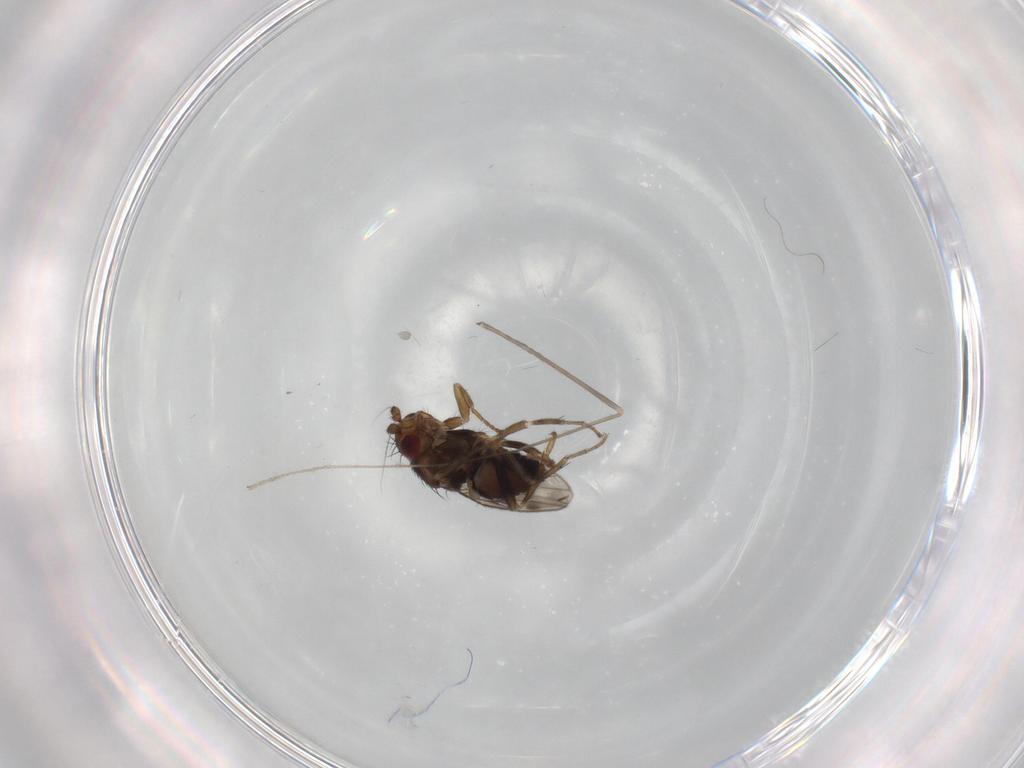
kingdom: Animalia
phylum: Arthropoda
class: Insecta
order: Diptera
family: Limoniidae
